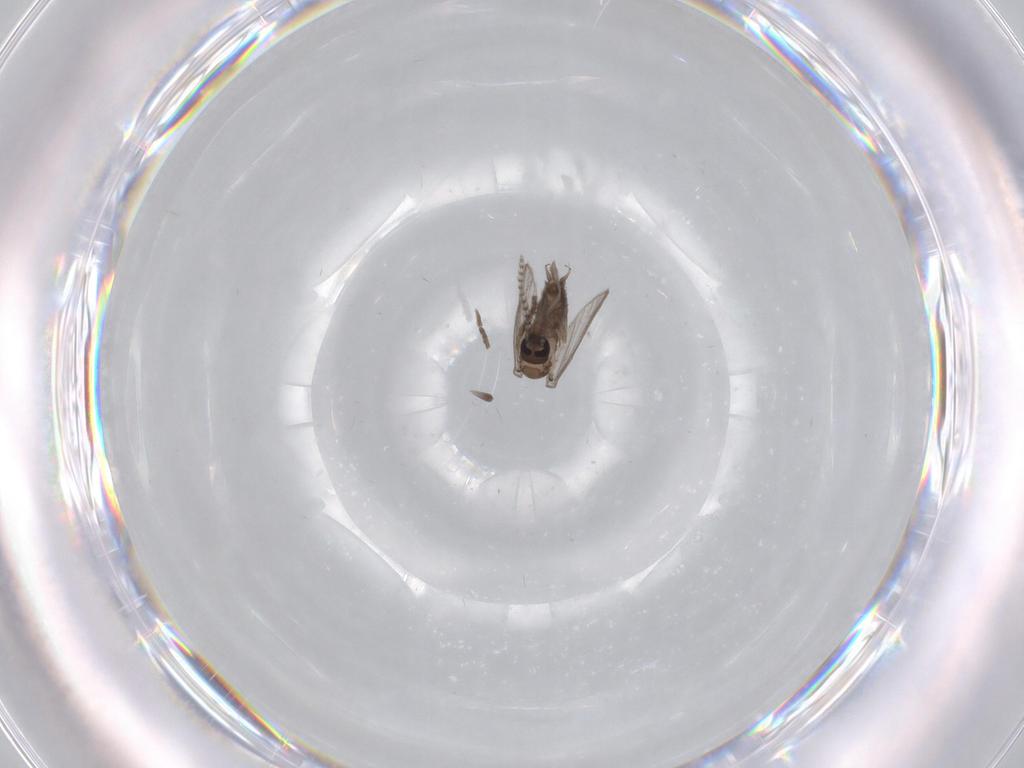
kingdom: Animalia
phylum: Arthropoda
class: Insecta
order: Diptera
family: Psychodidae
